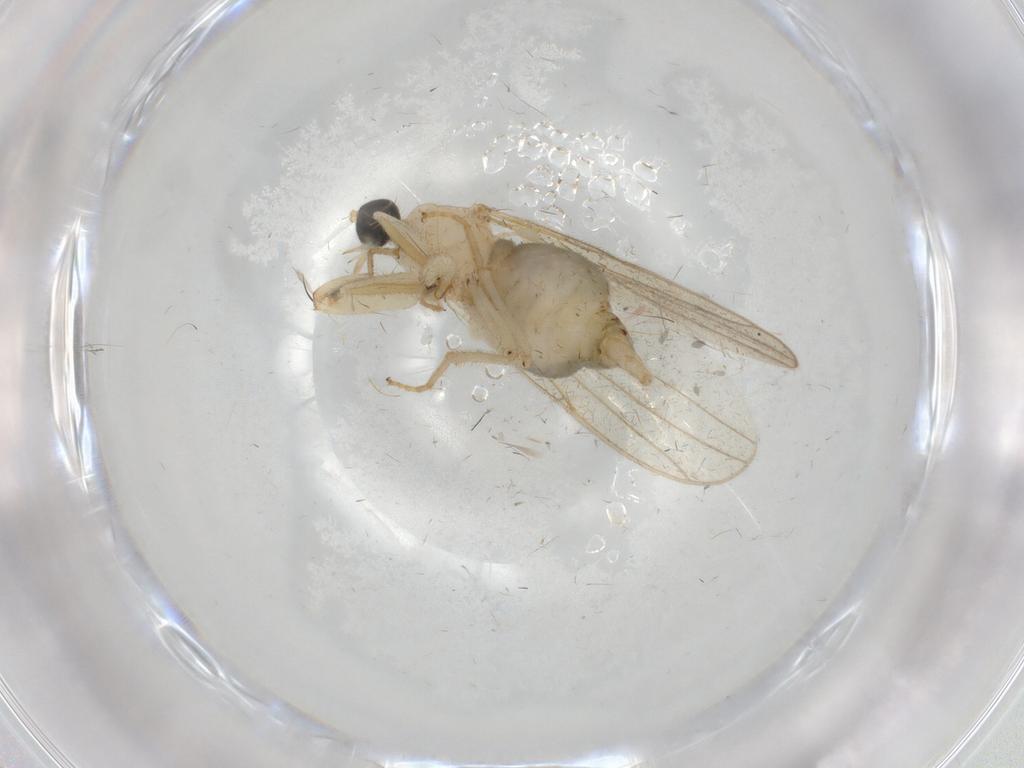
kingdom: Animalia
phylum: Arthropoda
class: Insecta
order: Diptera
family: Hybotidae
